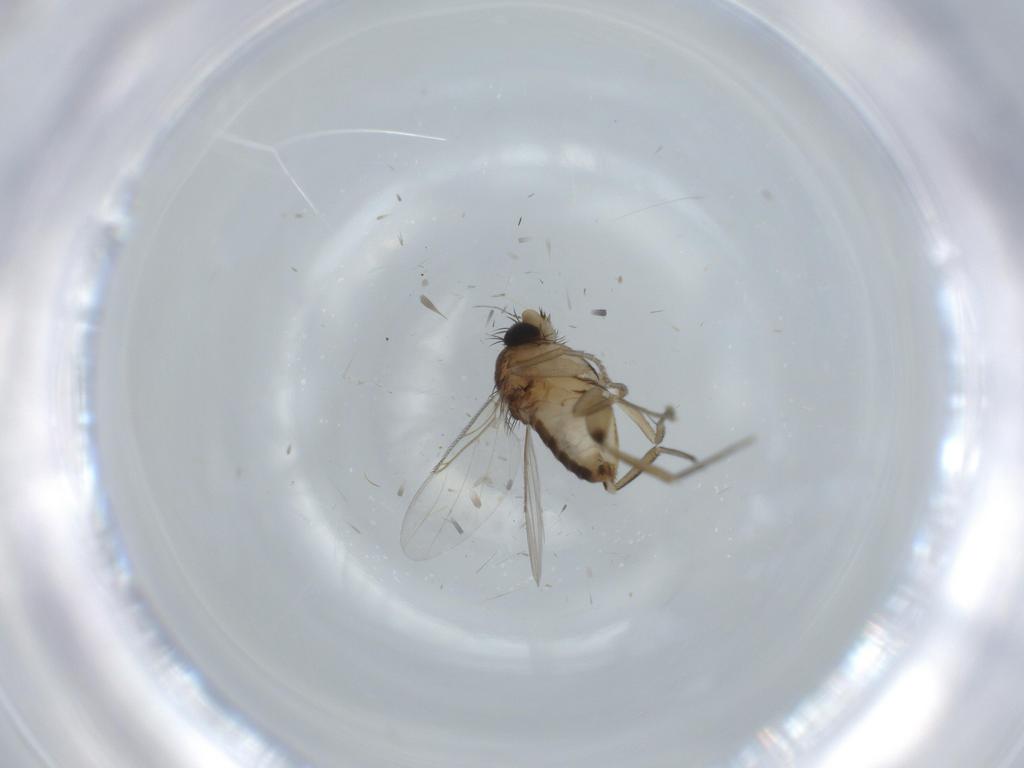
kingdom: Animalia
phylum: Arthropoda
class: Insecta
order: Diptera
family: Phoridae
